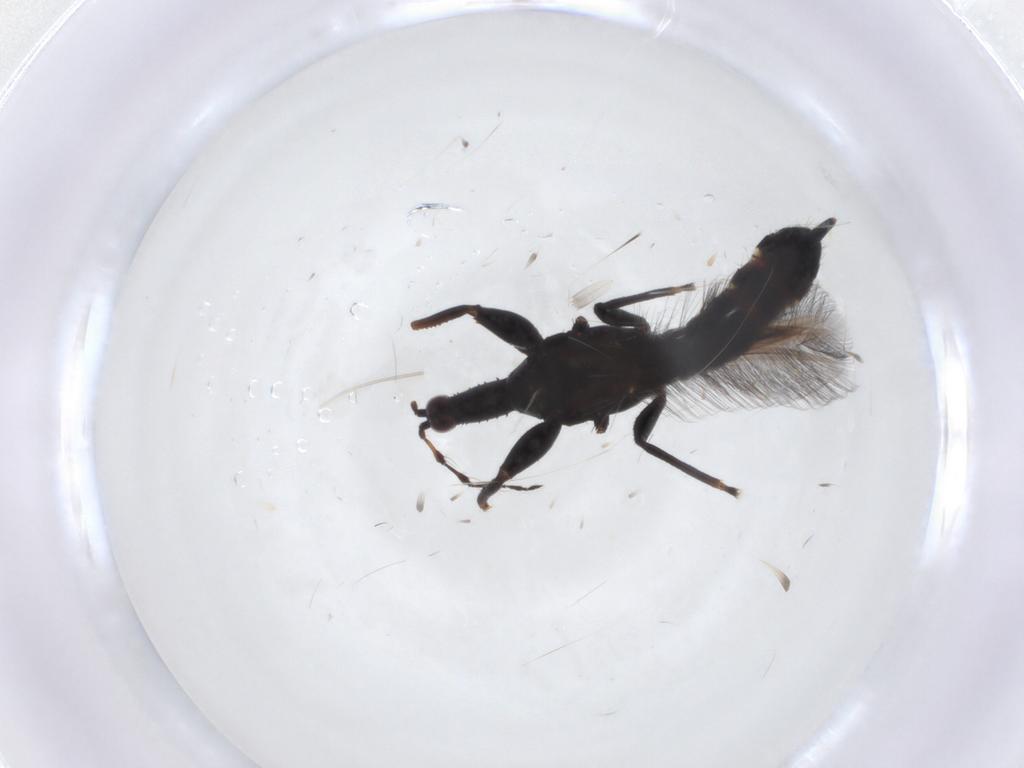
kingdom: Animalia
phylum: Arthropoda
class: Insecta
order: Thysanoptera
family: Phlaeothripidae
